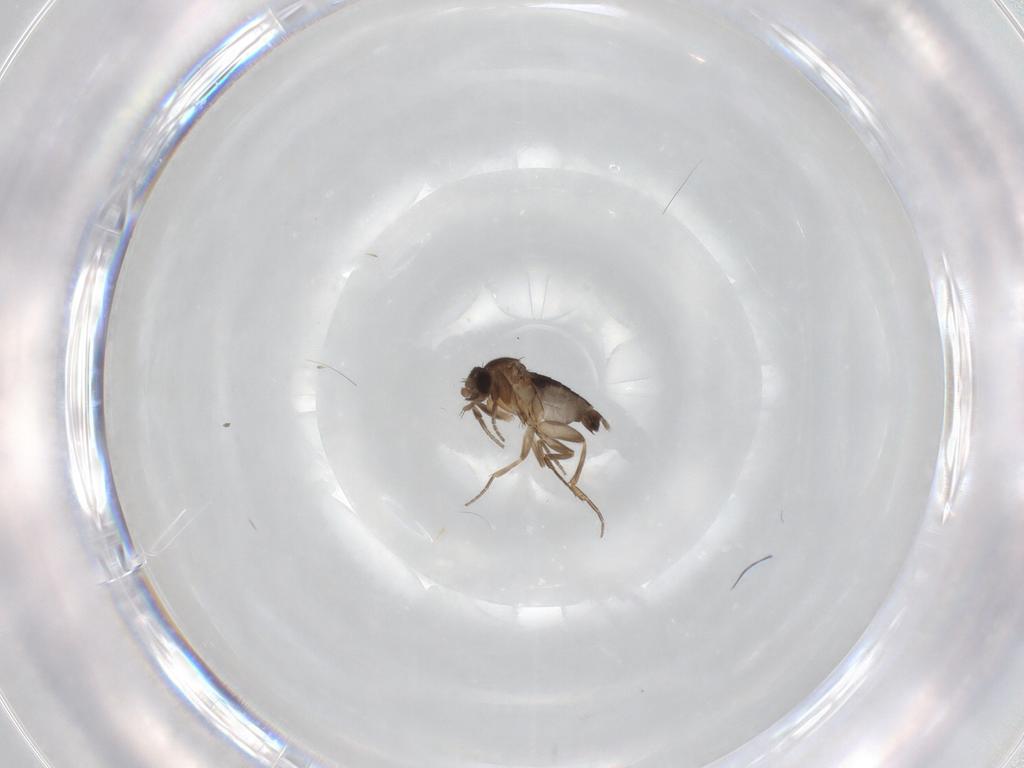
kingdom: Animalia
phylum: Arthropoda
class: Insecta
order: Diptera
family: Phoridae
